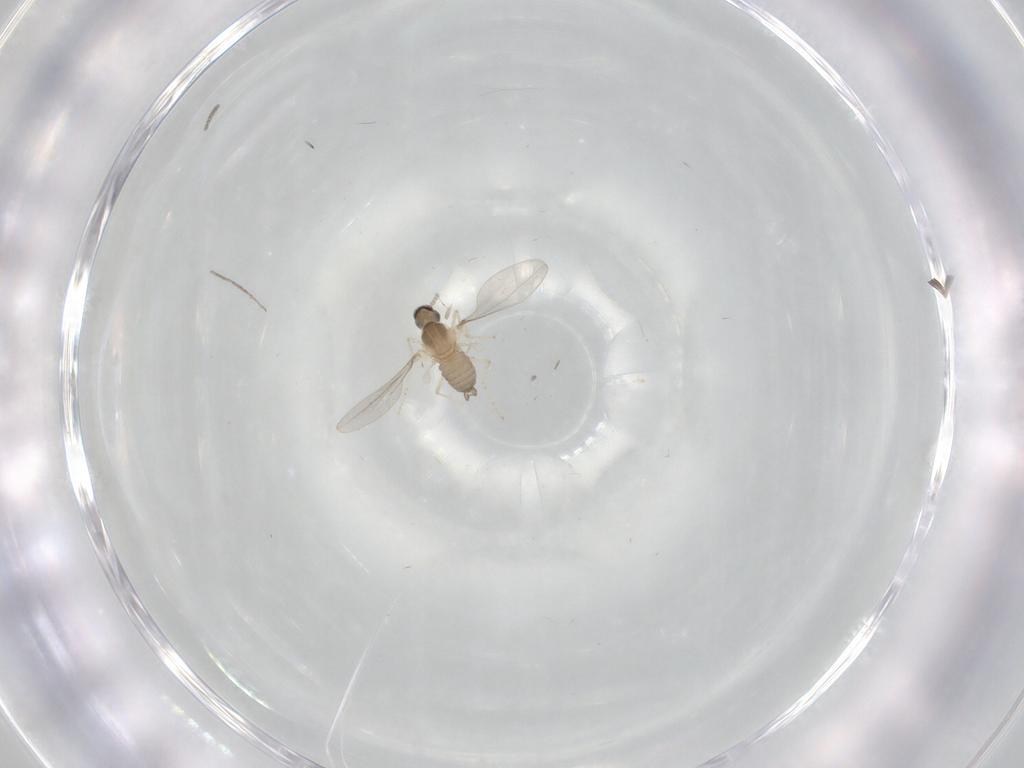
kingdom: Animalia
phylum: Arthropoda
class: Insecta
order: Diptera
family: Cecidomyiidae
